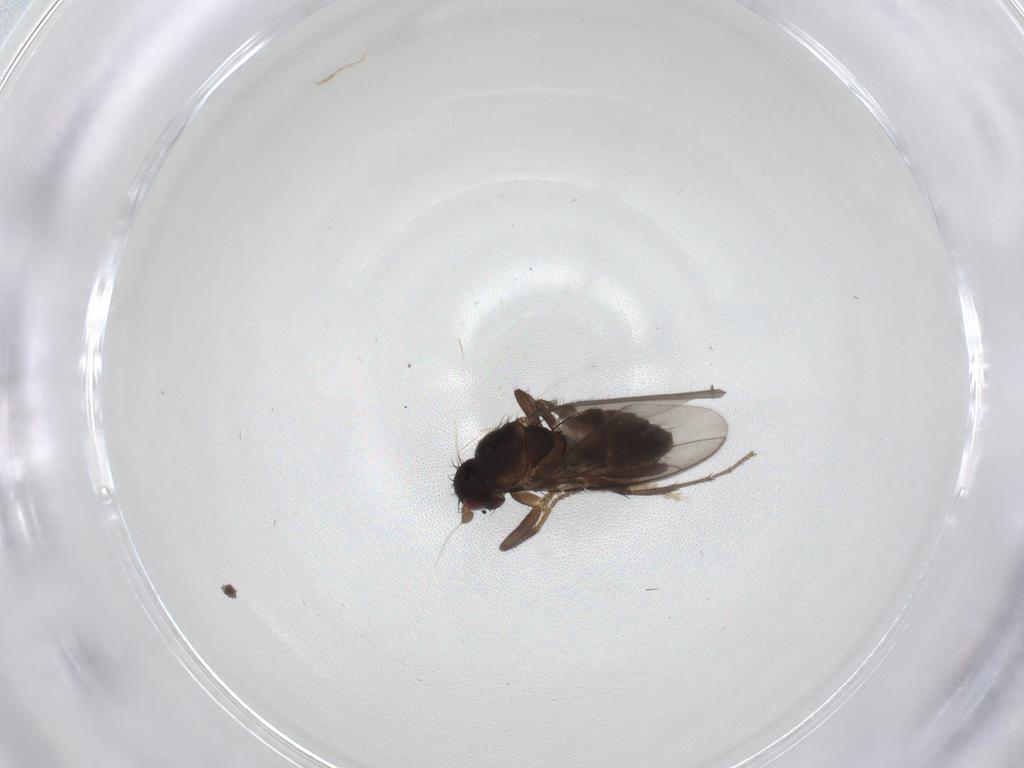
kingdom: Animalia
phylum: Arthropoda
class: Insecta
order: Diptera
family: Sphaeroceridae
